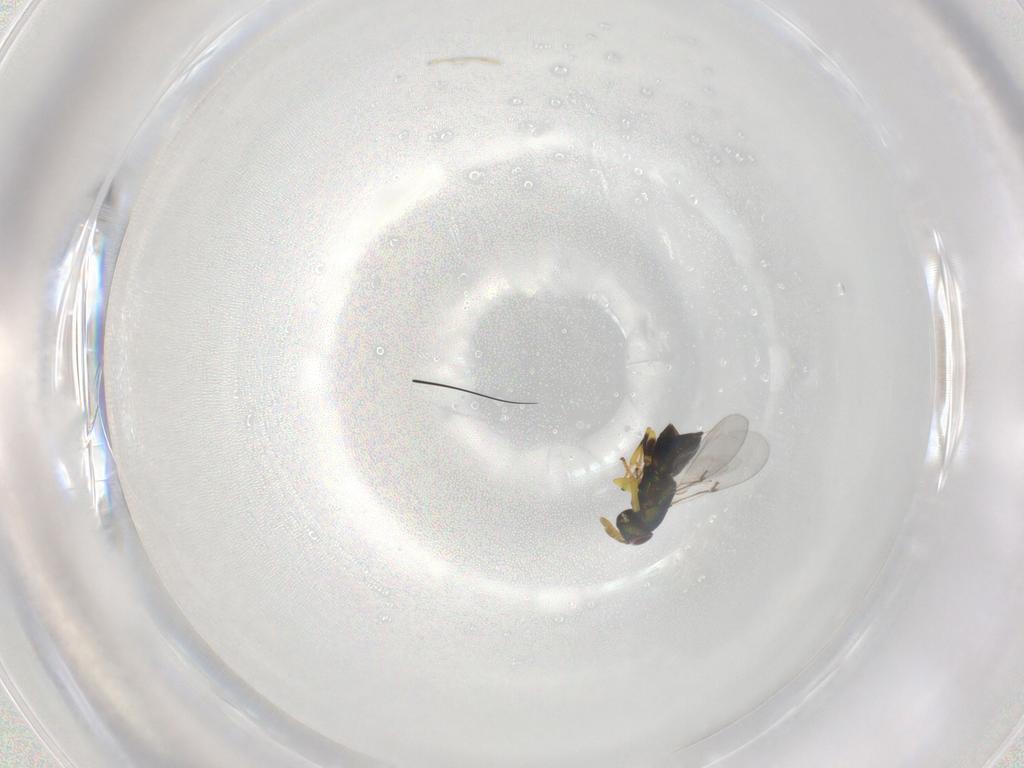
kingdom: Animalia
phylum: Arthropoda
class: Insecta
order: Hymenoptera
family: Encyrtidae
